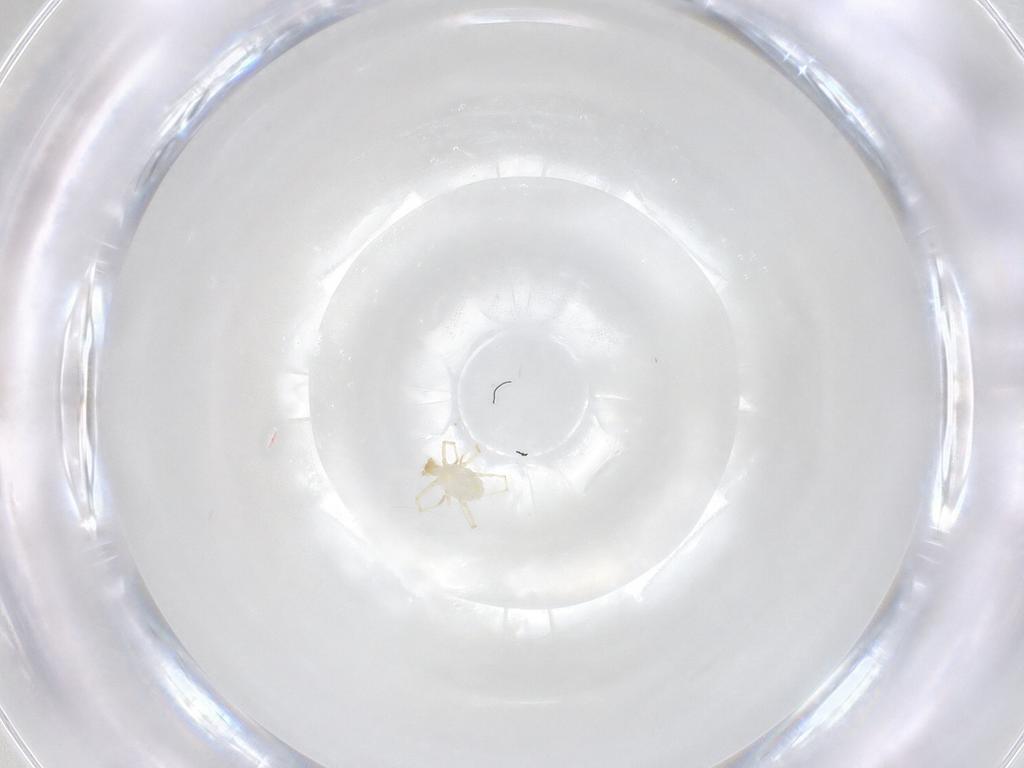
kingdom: Animalia
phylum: Arthropoda
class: Arachnida
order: Trombidiformes
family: Erythraeidae
